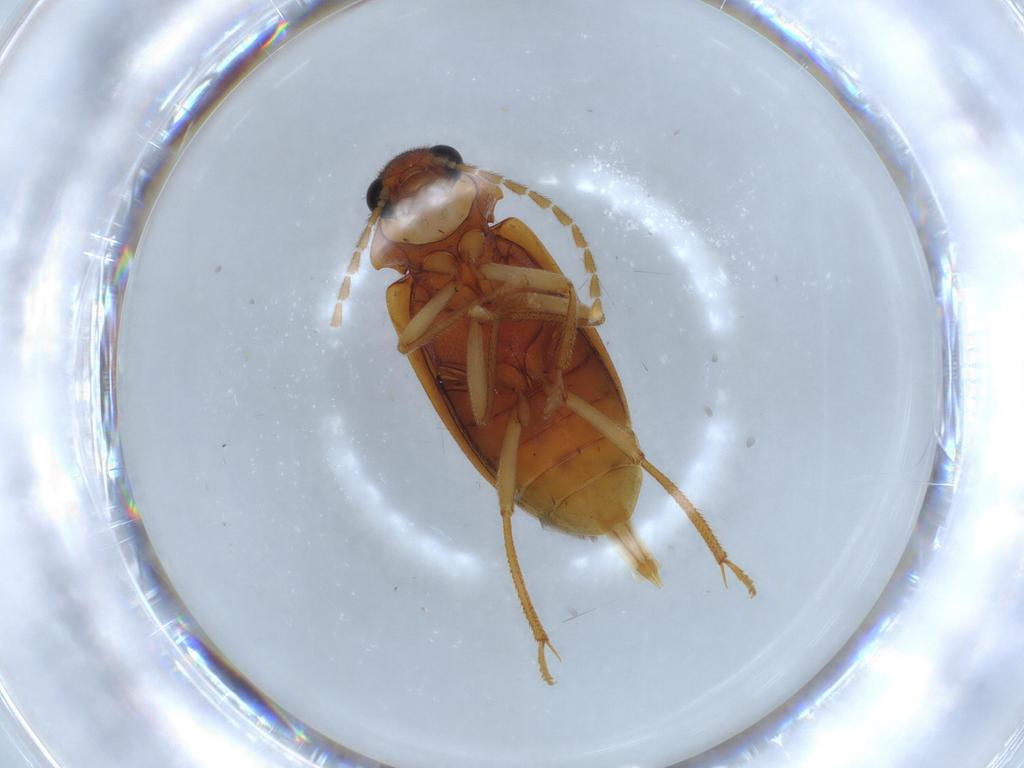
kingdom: Animalia
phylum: Arthropoda
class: Insecta
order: Coleoptera
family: Ptilodactylidae
